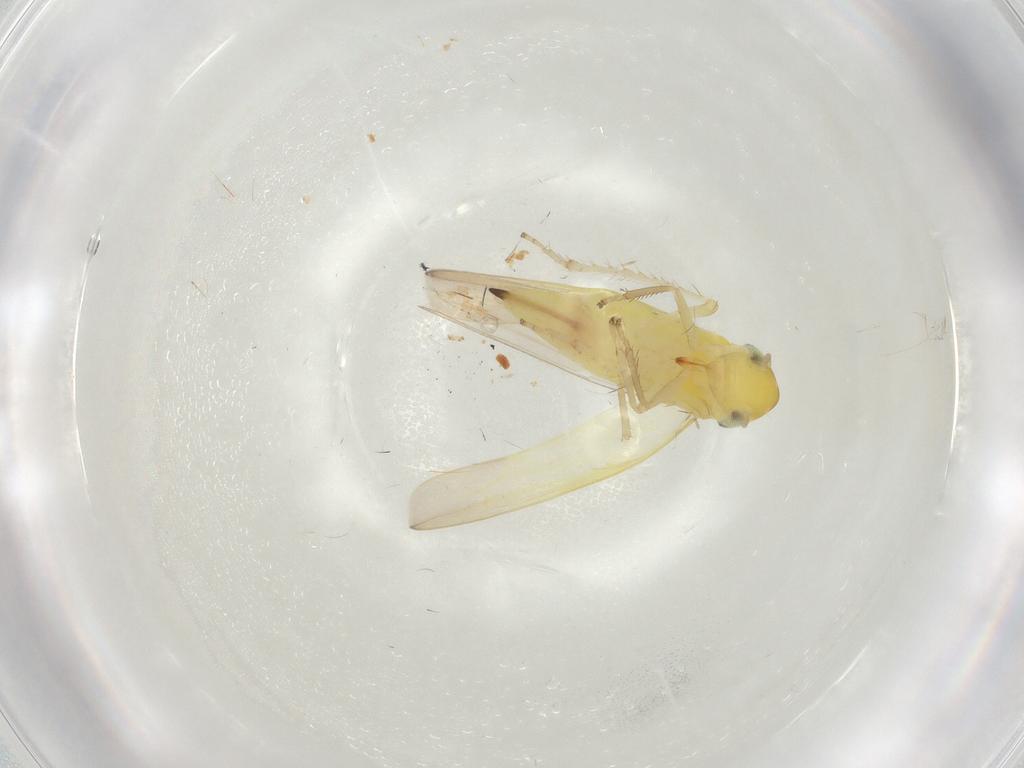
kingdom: Animalia
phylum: Arthropoda
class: Insecta
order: Hemiptera
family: Cicadellidae
